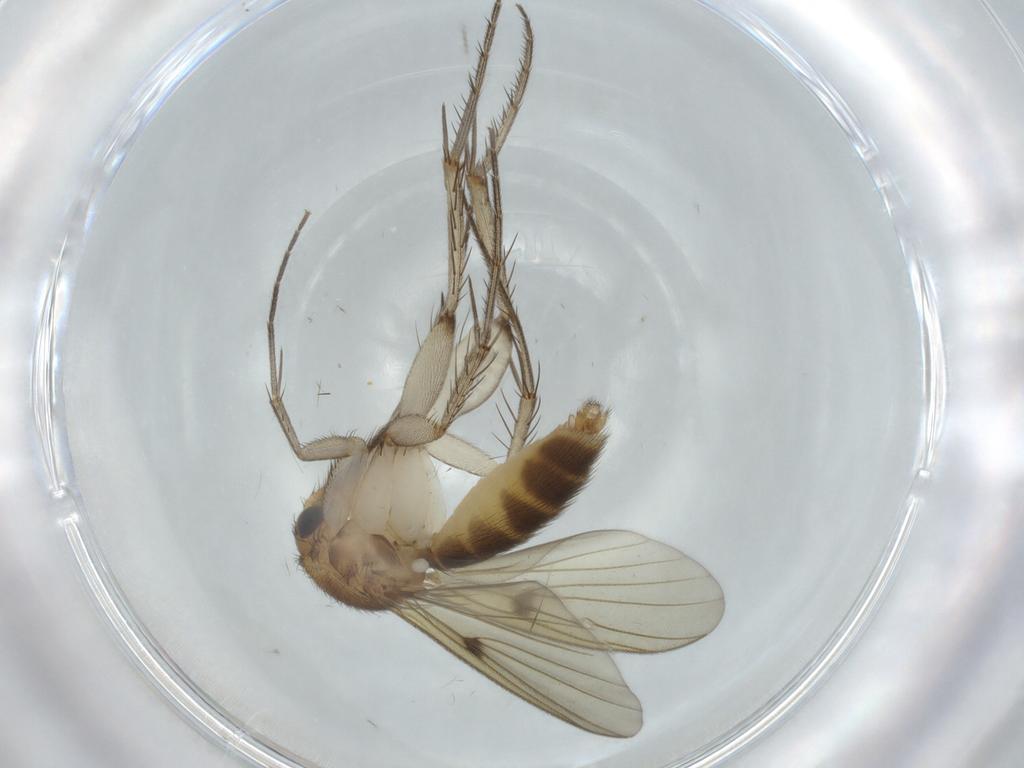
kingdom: Animalia
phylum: Arthropoda
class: Insecta
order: Diptera
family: Mycetophilidae
